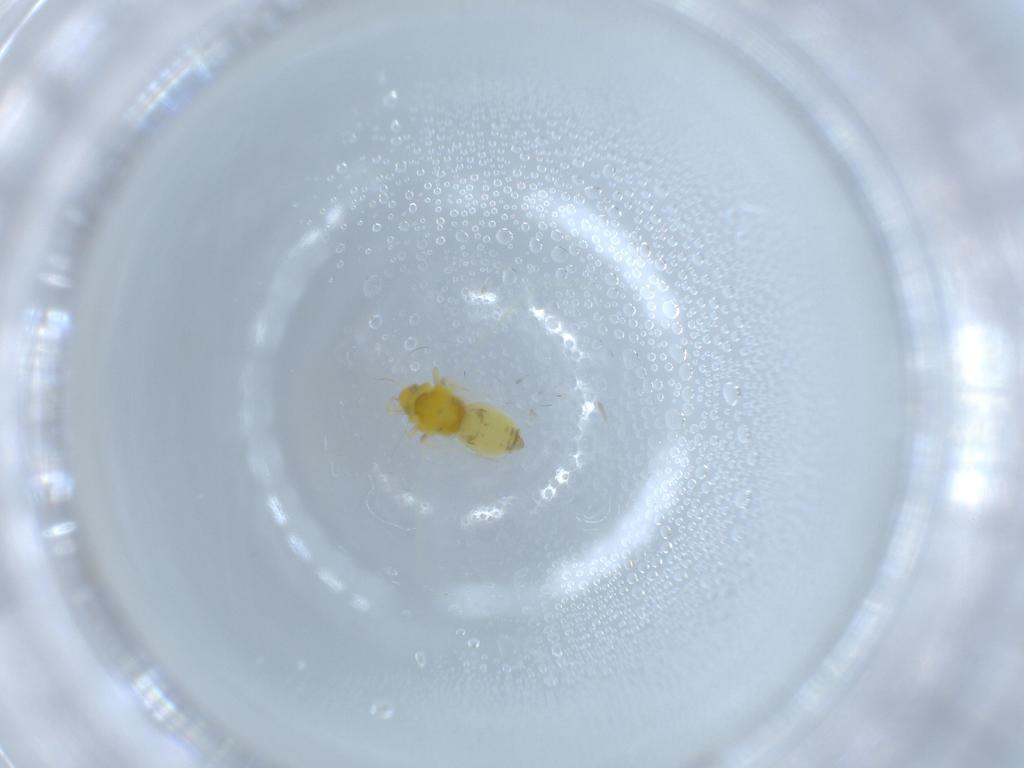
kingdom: Animalia
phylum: Arthropoda
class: Insecta
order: Hemiptera
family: Aleyrodidae
